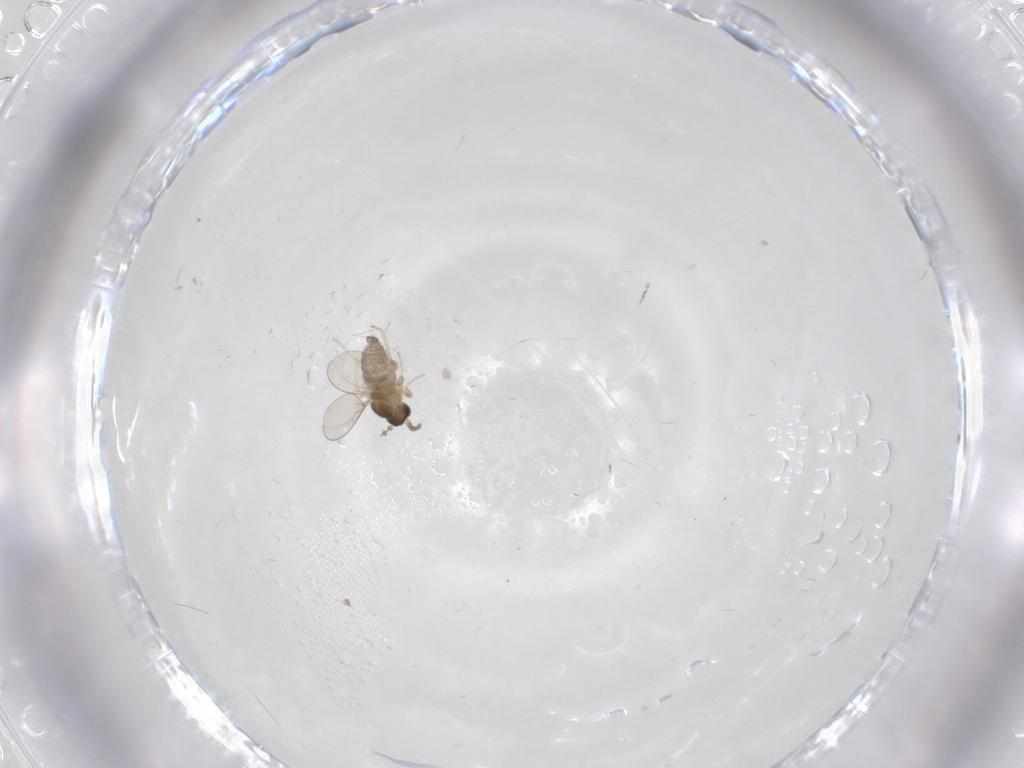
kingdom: Animalia
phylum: Arthropoda
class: Insecta
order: Diptera
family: Cecidomyiidae
